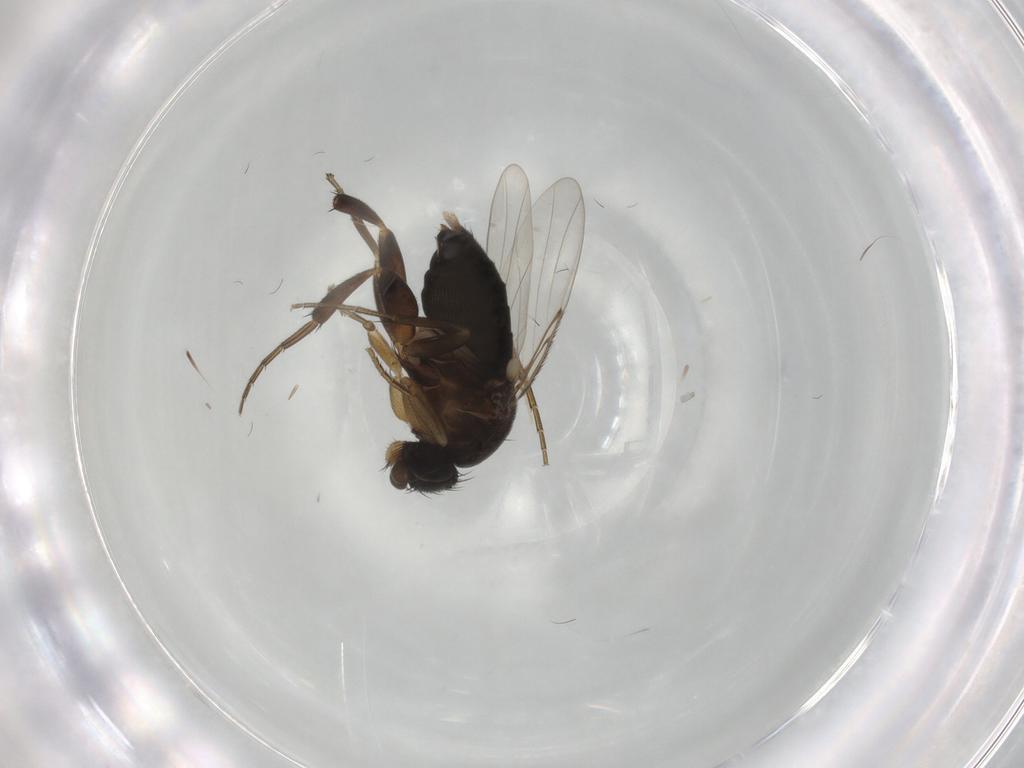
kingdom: Animalia
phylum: Arthropoda
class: Insecta
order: Diptera
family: Phoridae
